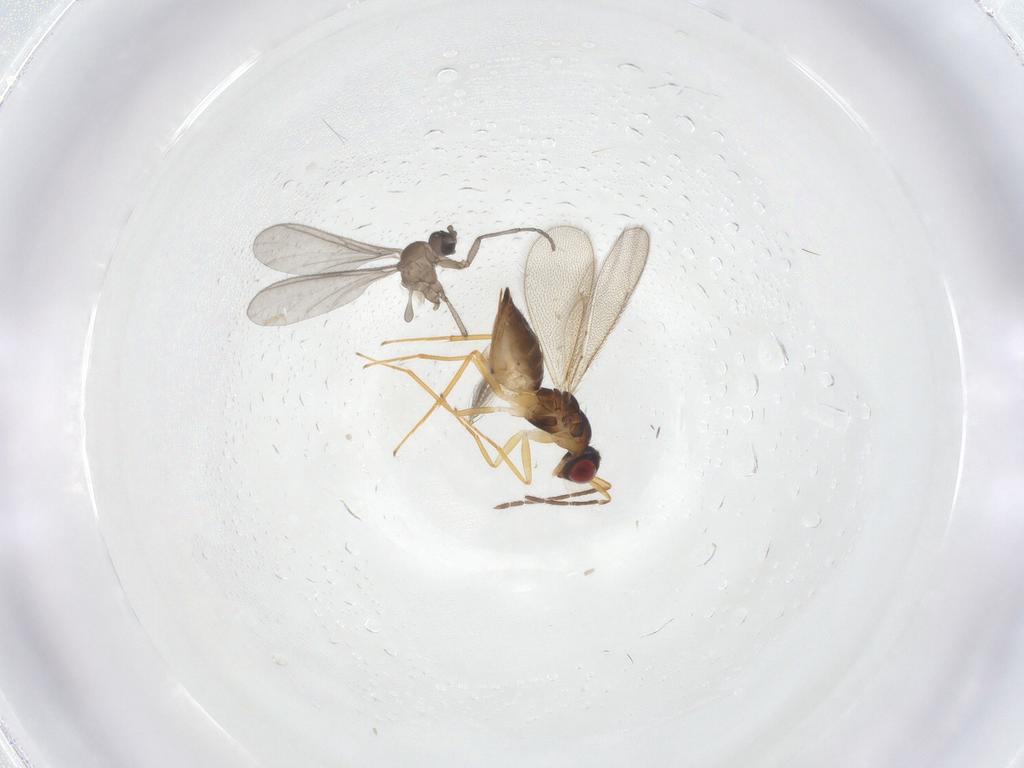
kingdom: Animalia
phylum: Arthropoda
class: Insecta
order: Hymenoptera
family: Eulophidae
